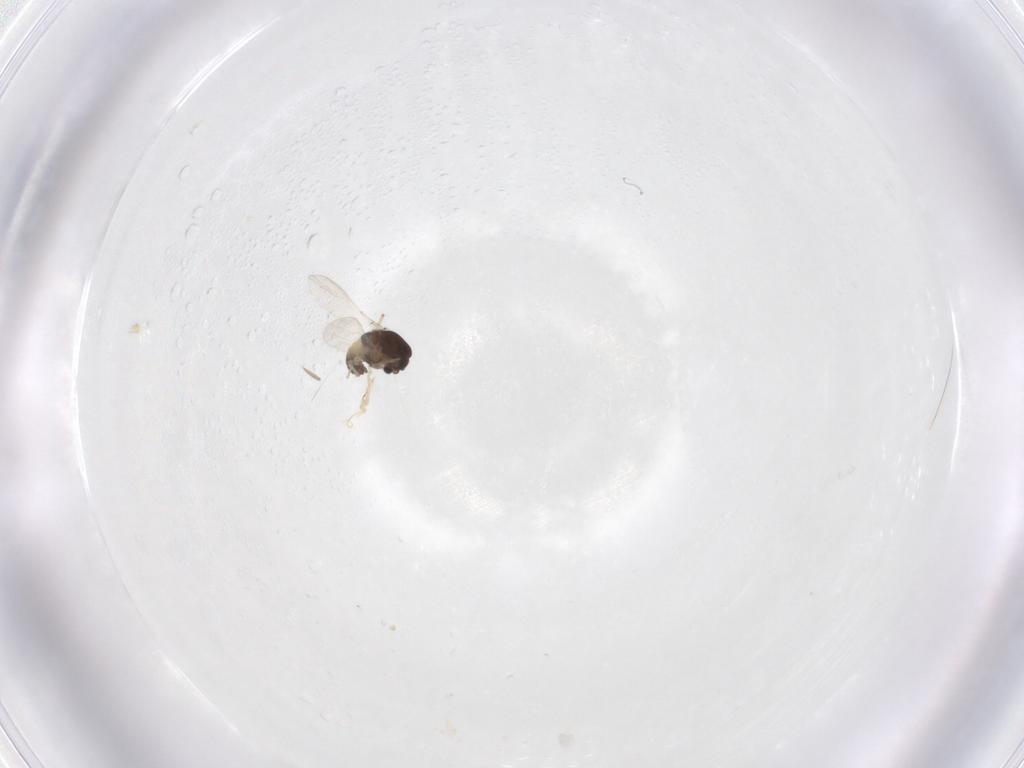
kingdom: Animalia
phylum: Arthropoda
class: Insecta
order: Diptera
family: Chironomidae
